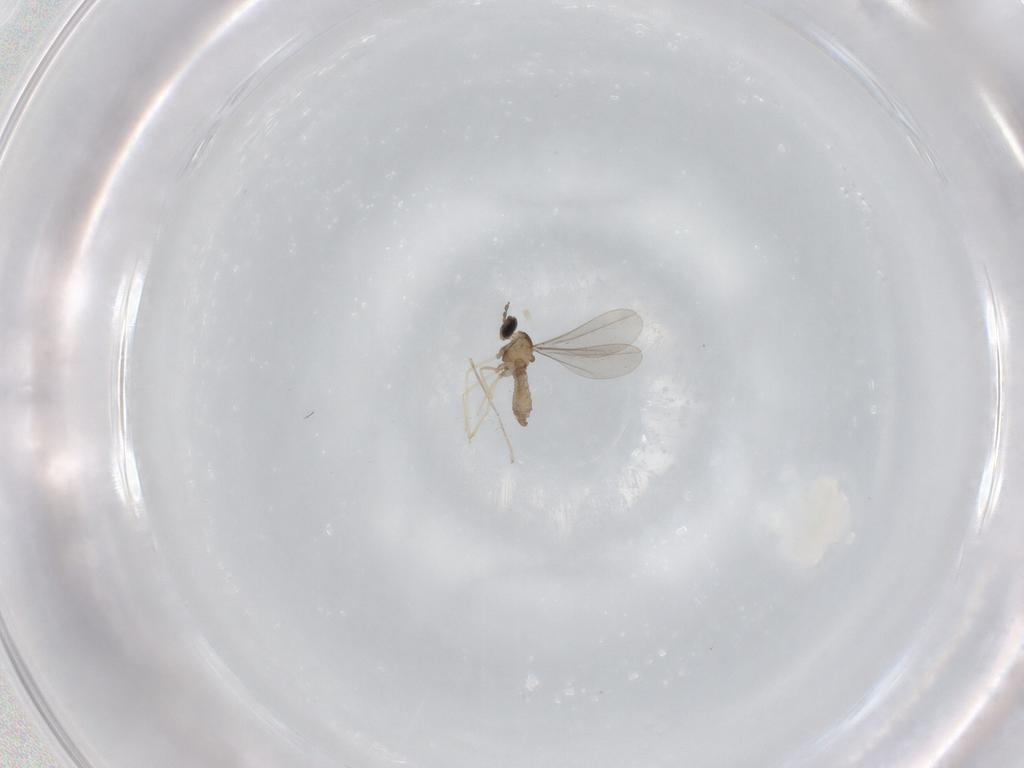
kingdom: Animalia
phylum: Arthropoda
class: Insecta
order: Diptera
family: Cecidomyiidae
